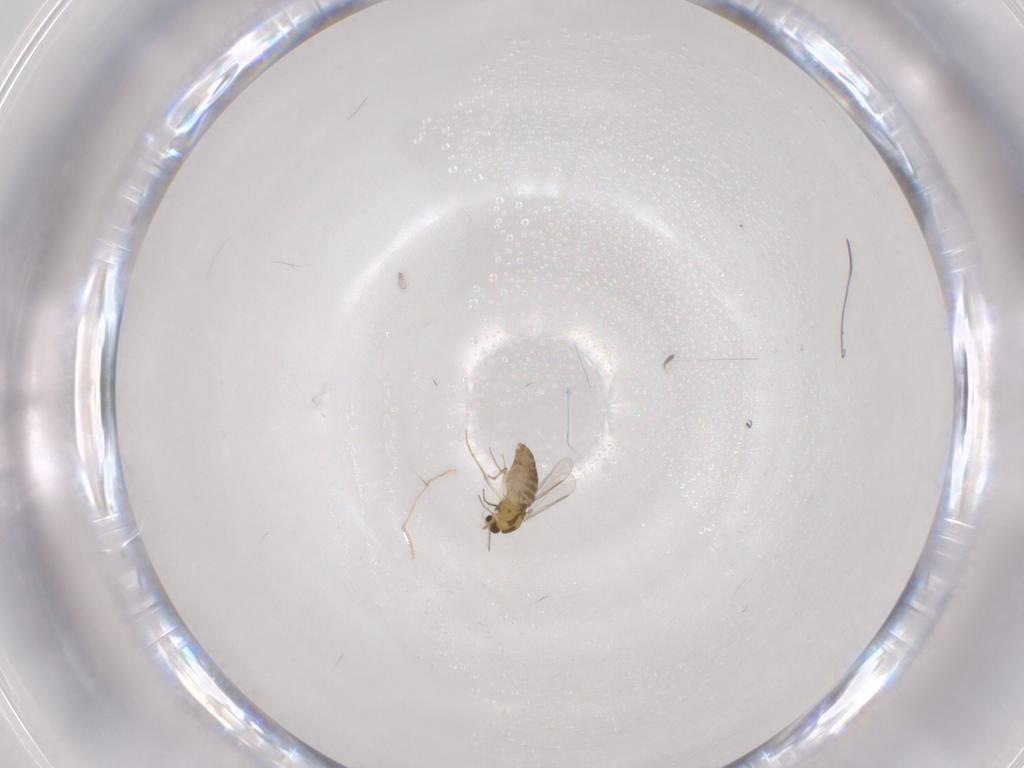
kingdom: Animalia
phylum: Arthropoda
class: Insecta
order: Diptera
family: Chironomidae
